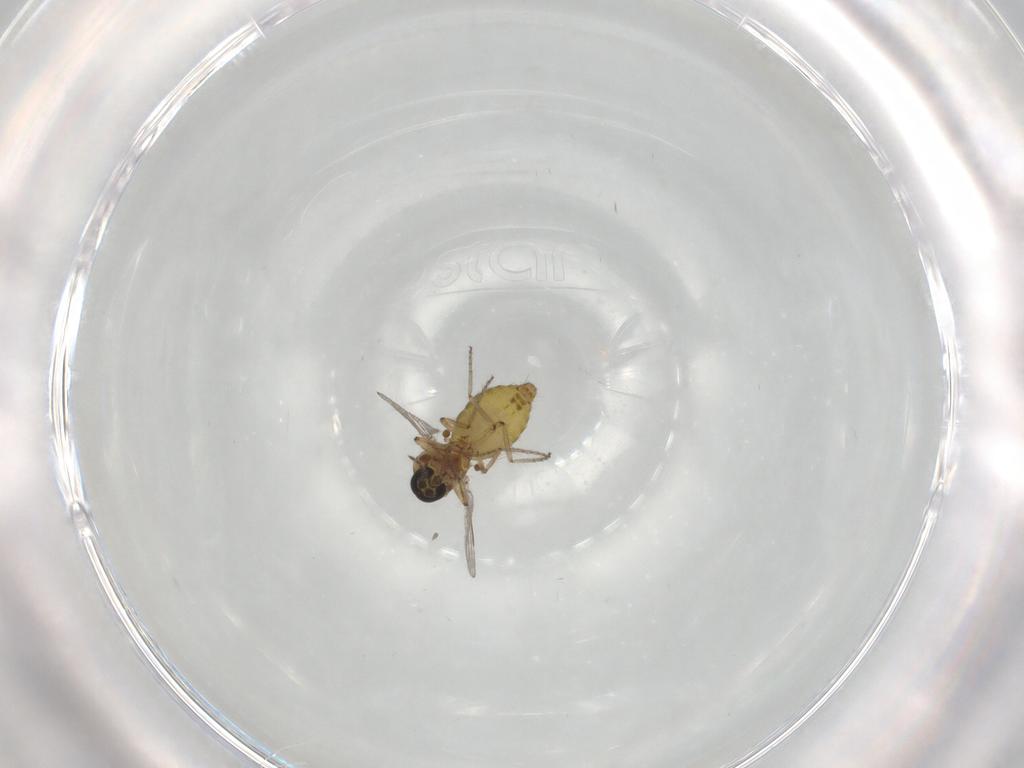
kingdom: Animalia
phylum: Arthropoda
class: Insecta
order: Diptera
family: Ceratopogonidae
